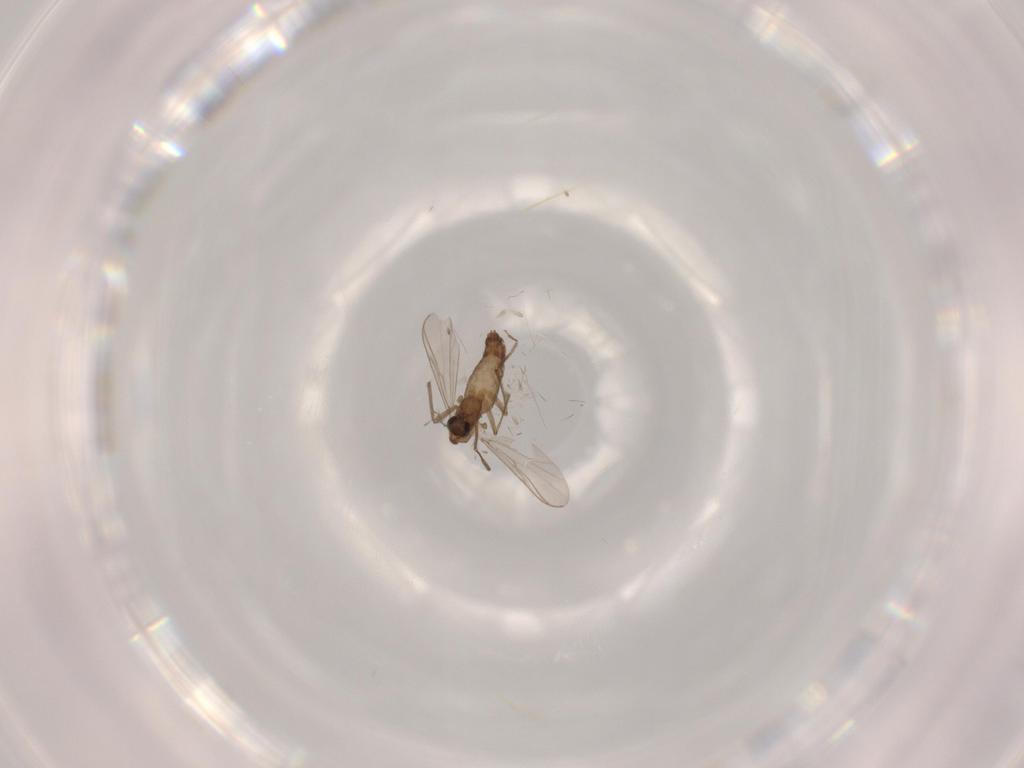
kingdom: Animalia
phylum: Arthropoda
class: Insecta
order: Diptera
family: Chironomidae
